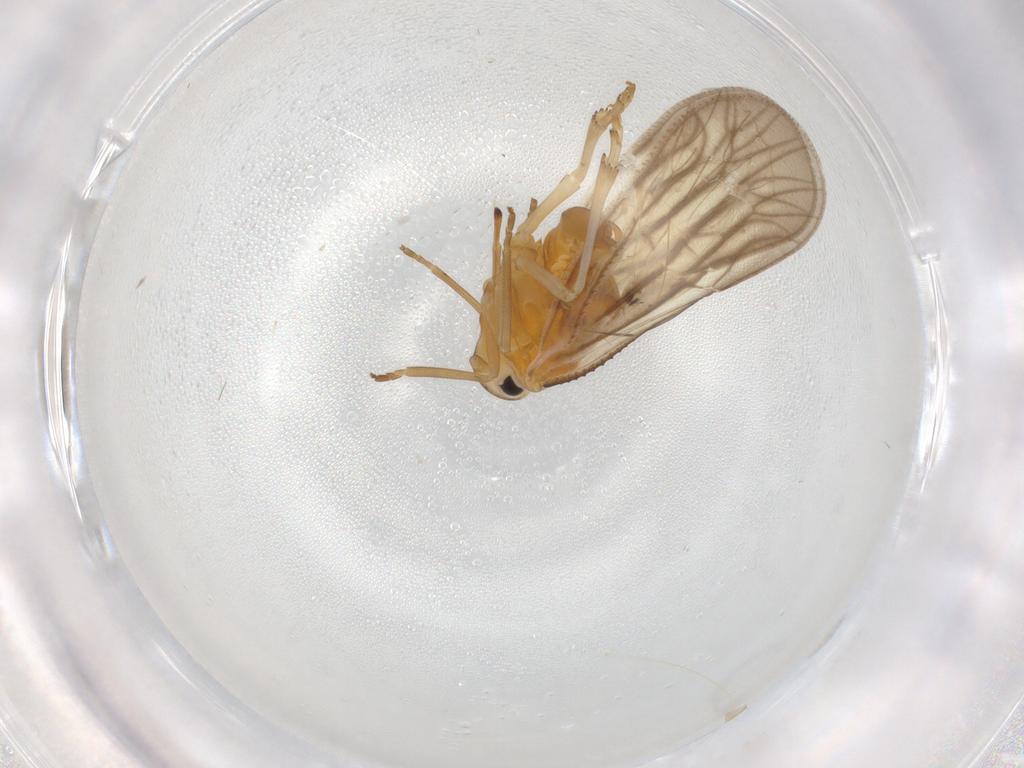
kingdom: Animalia
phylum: Arthropoda
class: Insecta
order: Hemiptera
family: Meenoplidae
